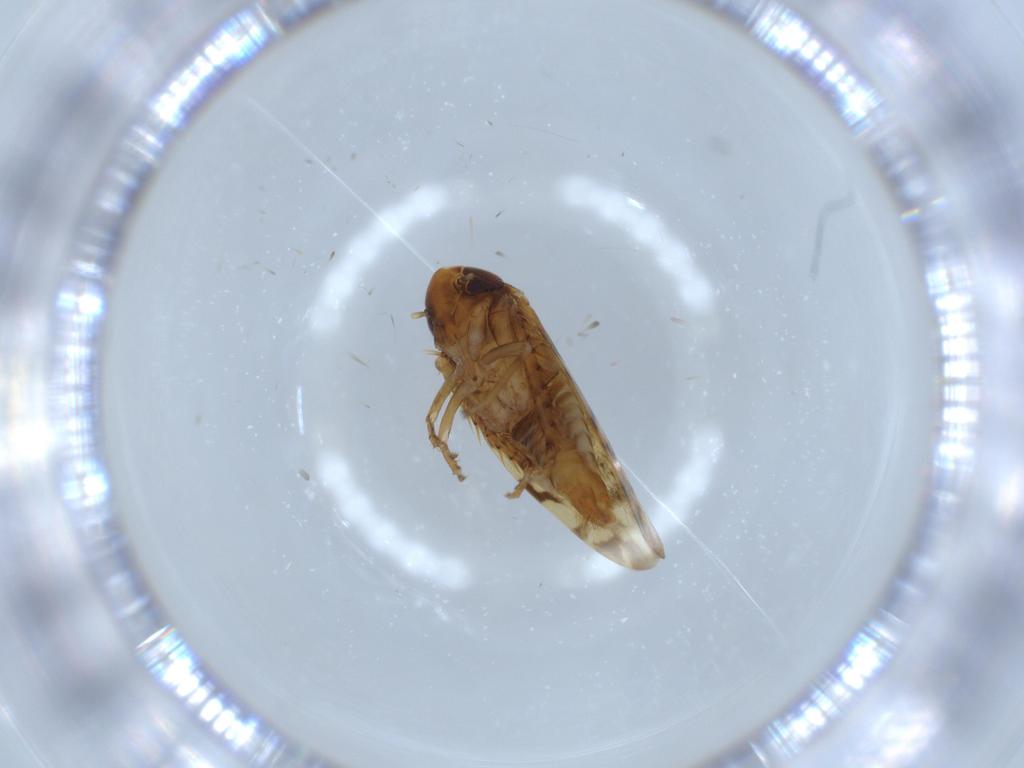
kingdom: Animalia
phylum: Arthropoda
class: Insecta
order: Hemiptera
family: Cicadellidae
